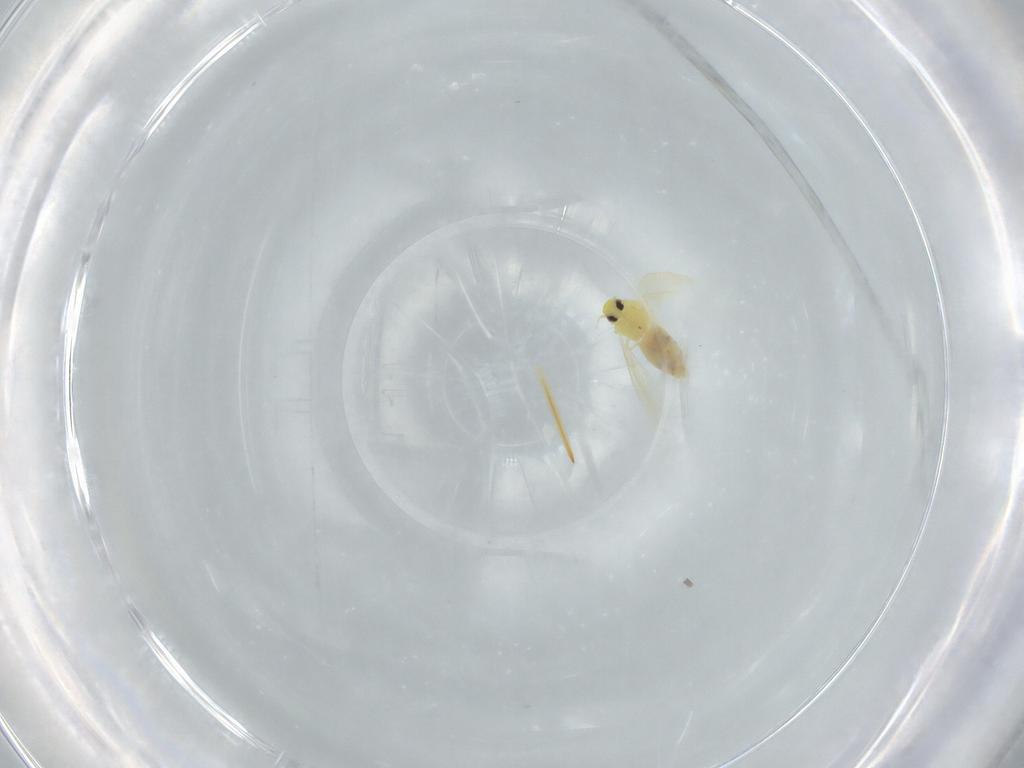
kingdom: Animalia
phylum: Arthropoda
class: Insecta
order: Hemiptera
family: Aleyrodidae
